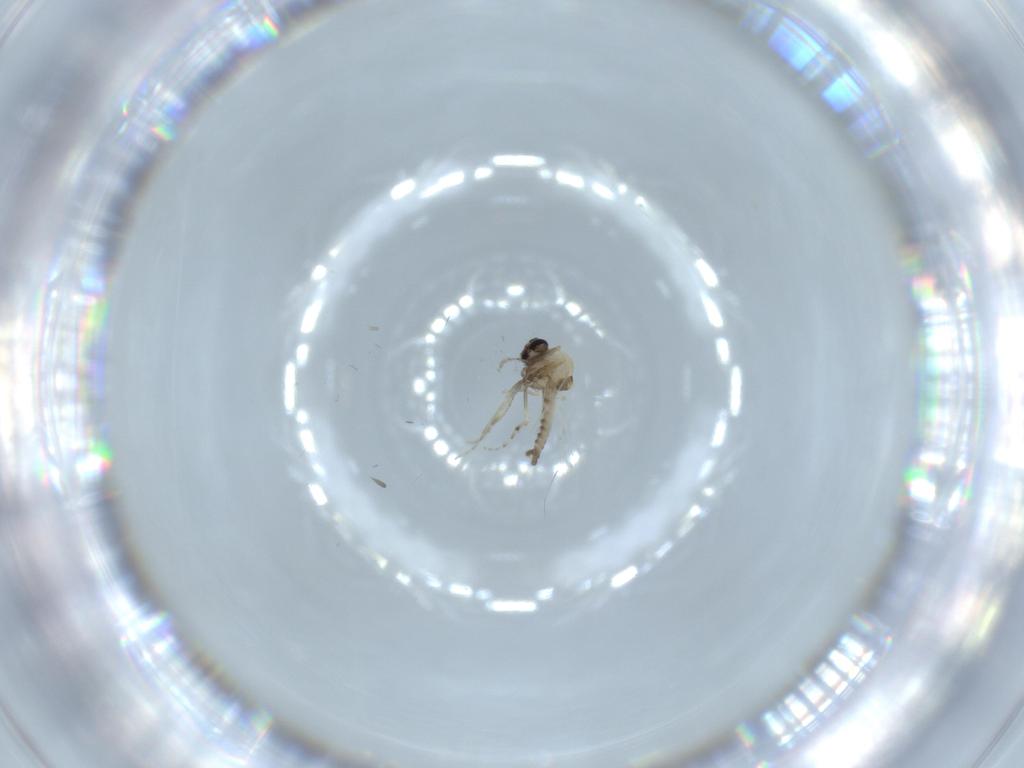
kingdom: Animalia
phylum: Arthropoda
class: Insecta
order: Diptera
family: Ceratopogonidae
